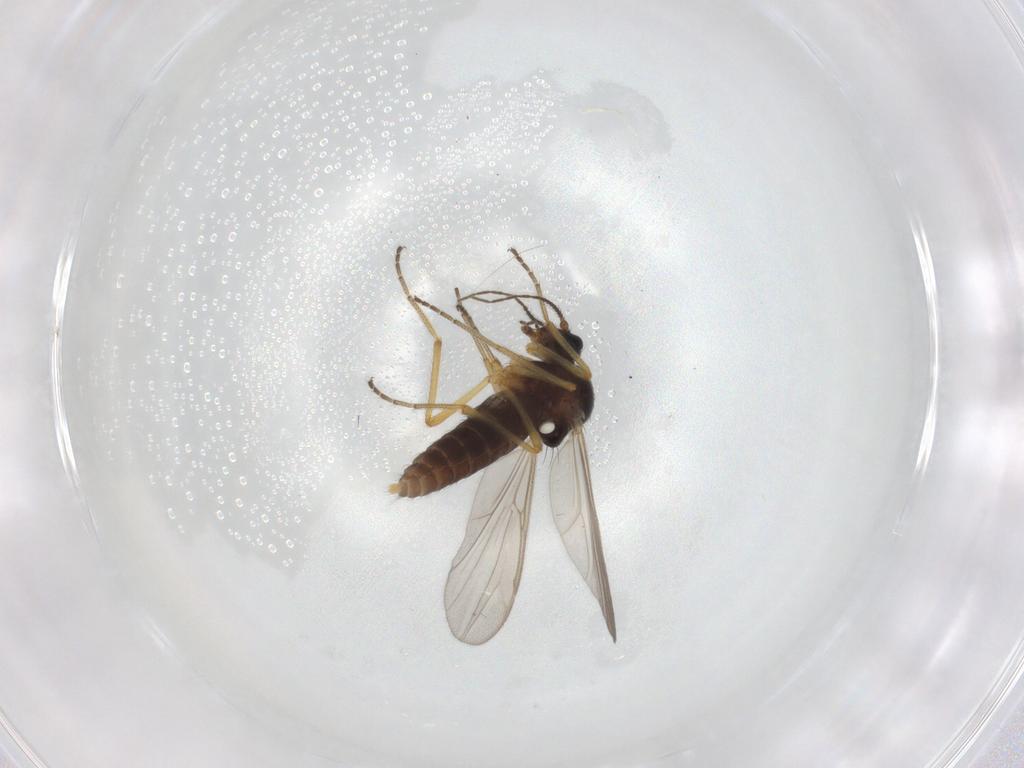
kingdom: Animalia
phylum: Arthropoda
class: Insecta
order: Diptera
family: Ceratopogonidae
